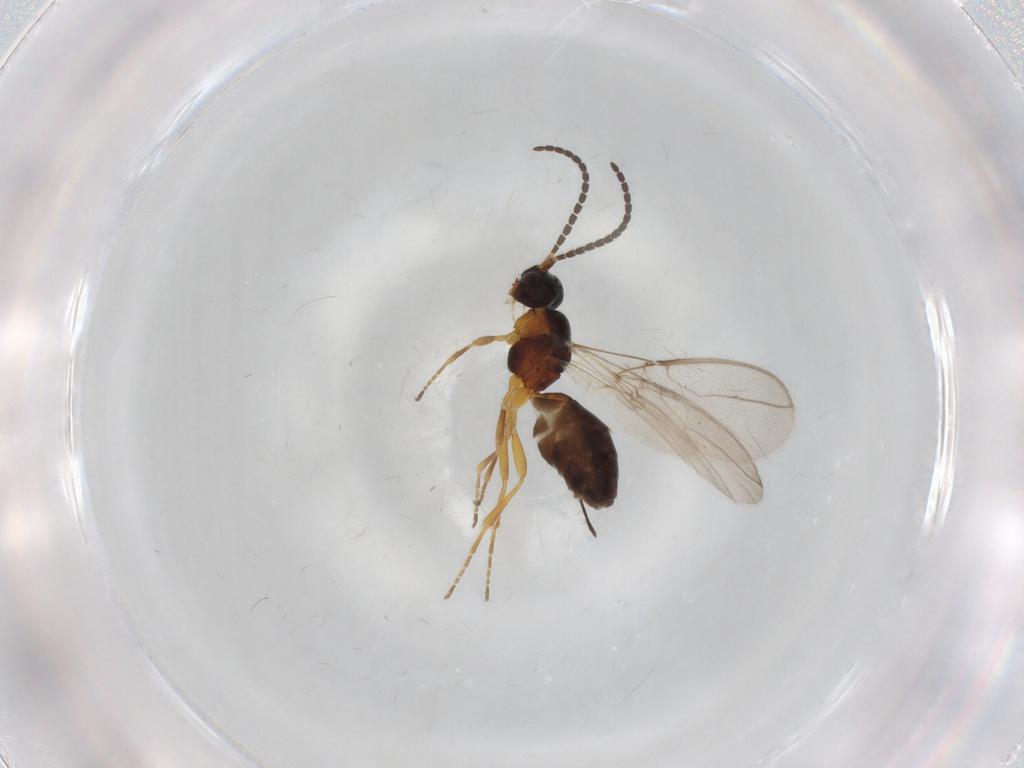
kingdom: Animalia
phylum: Arthropoda
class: Insecta
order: Hymenoptera
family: Braconidae
